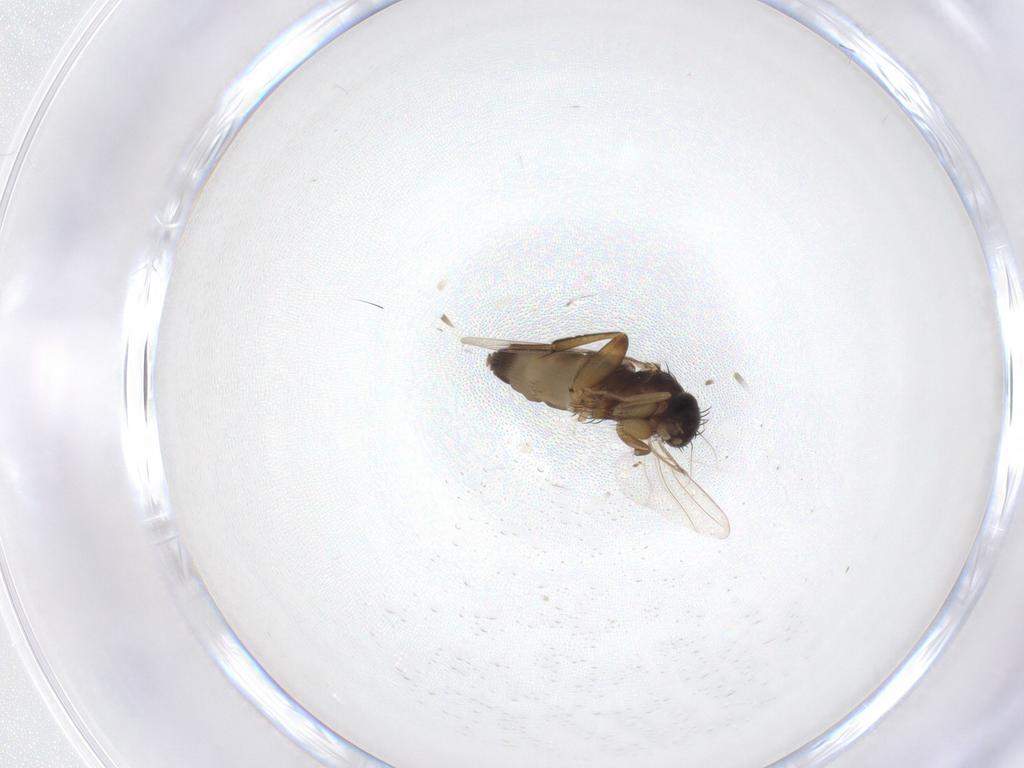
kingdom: Animalia
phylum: Arthropoda
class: Insecta
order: Diptera
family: Phoridae
